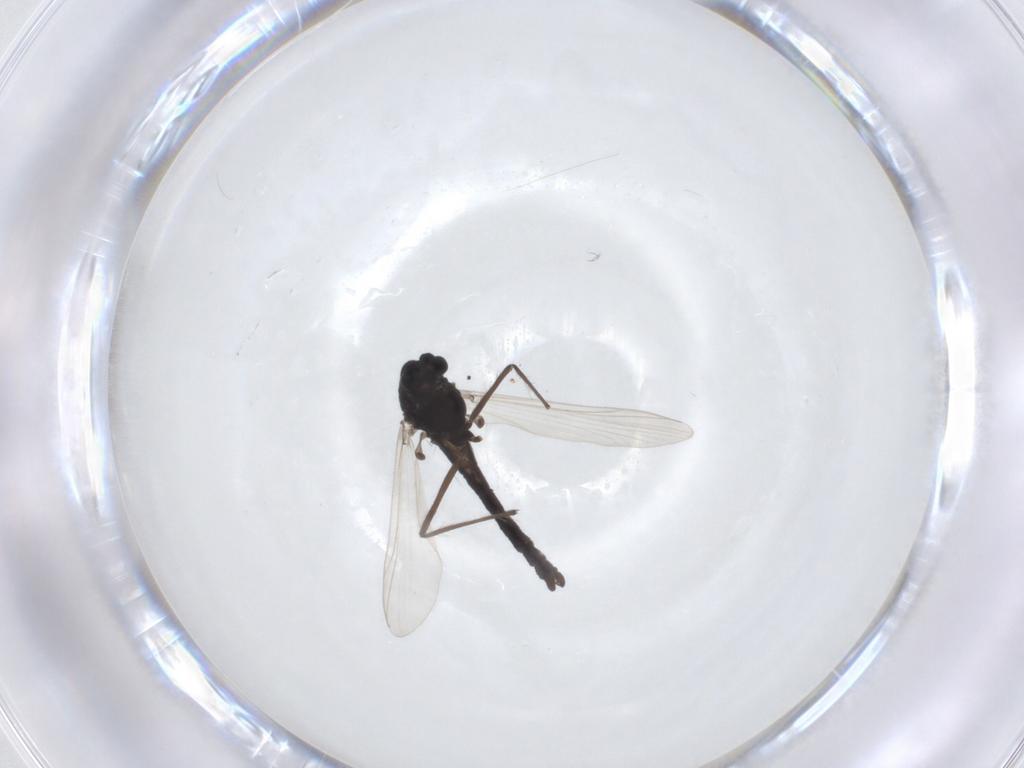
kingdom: Animalia
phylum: Arthropoda
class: Insecta
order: Diptera
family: Chironomidae
